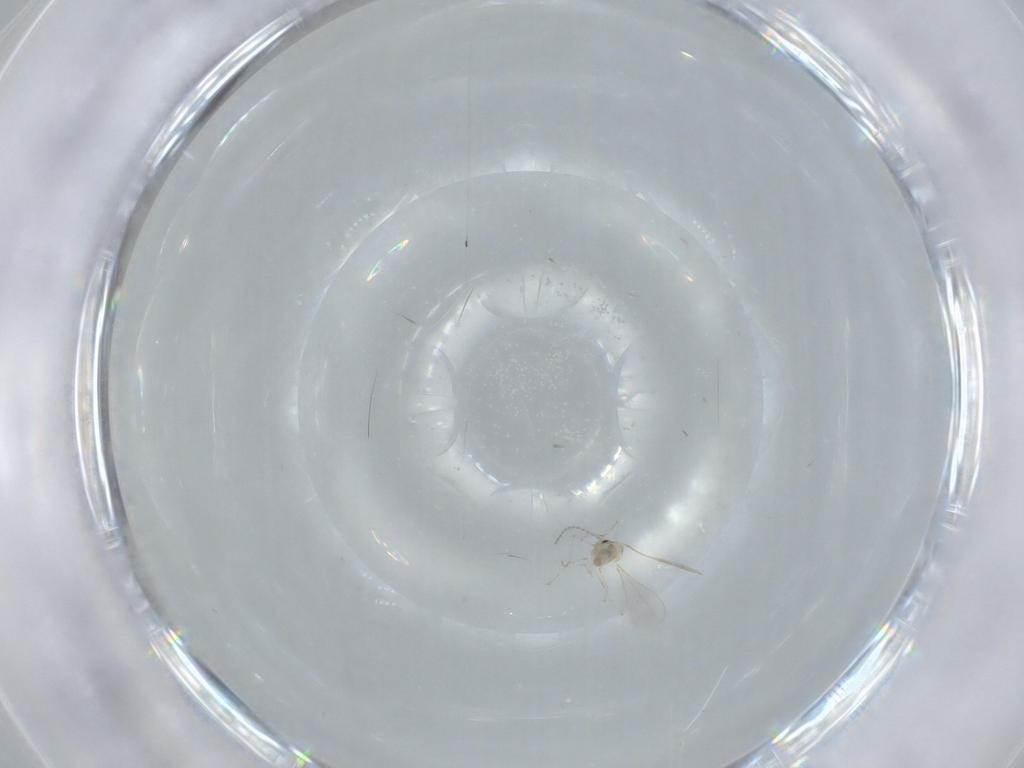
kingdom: Animalia
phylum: Arthropoda
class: Insecta
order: Diptera
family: Cecidomyiidae
